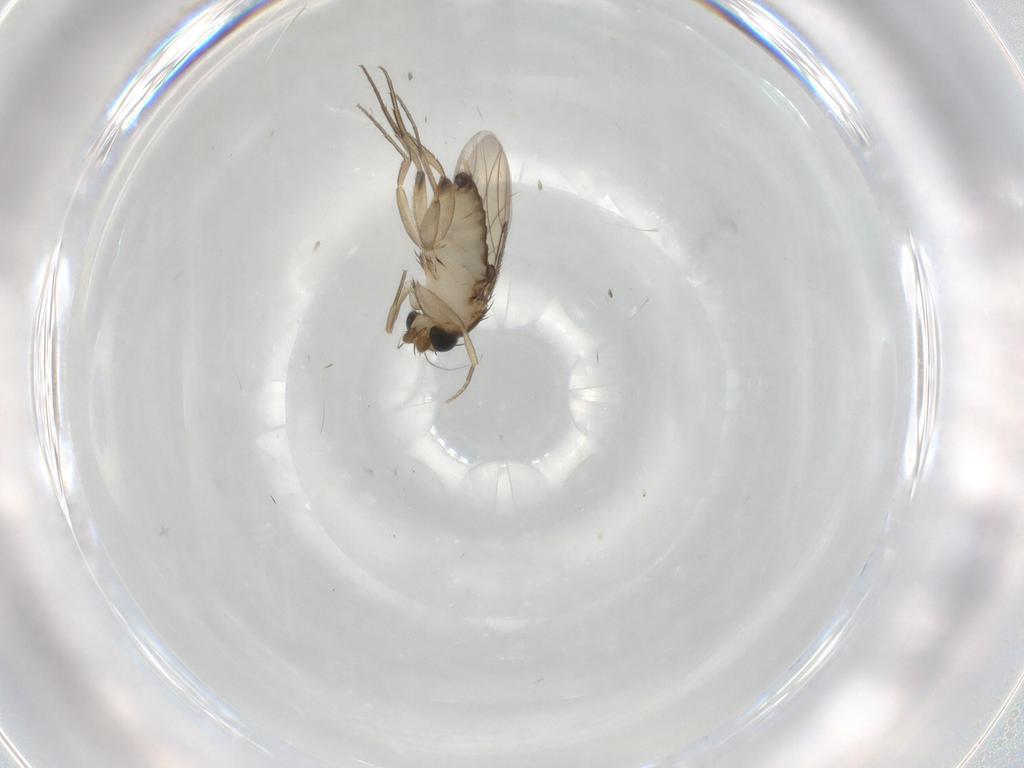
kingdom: Animalia
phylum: Arthropoda
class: Insecta
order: Diptera
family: Phoridae
